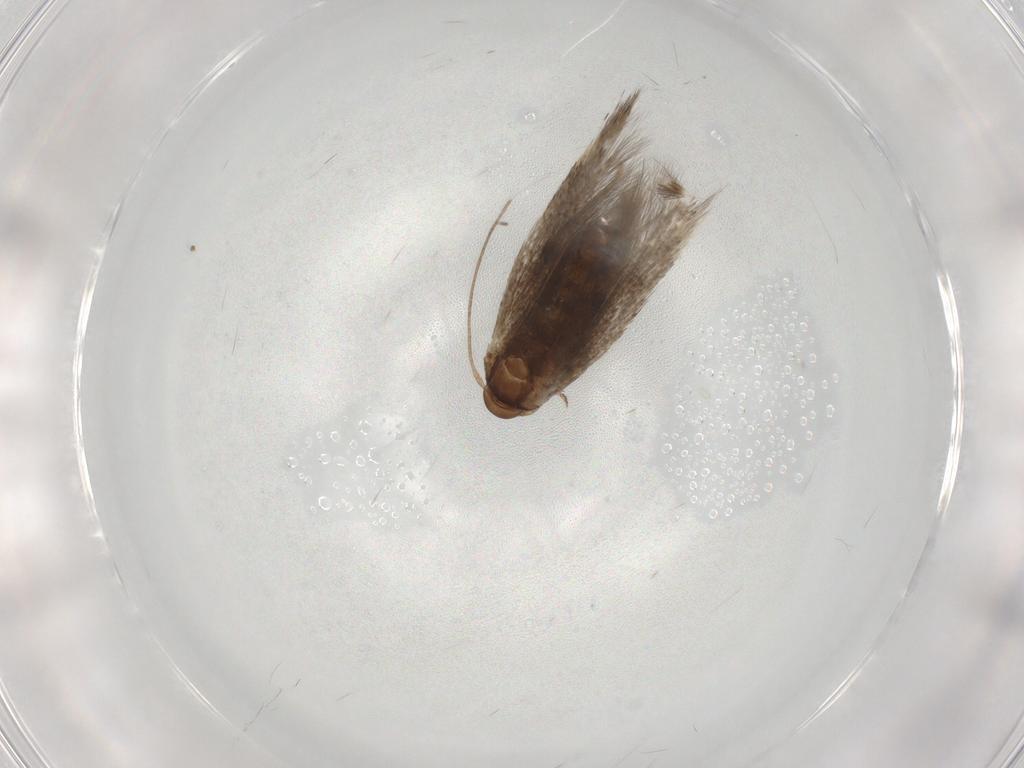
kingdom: Animalia
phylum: Arthropoda
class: Insecta
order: Lepidoptera
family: Elachistidae
